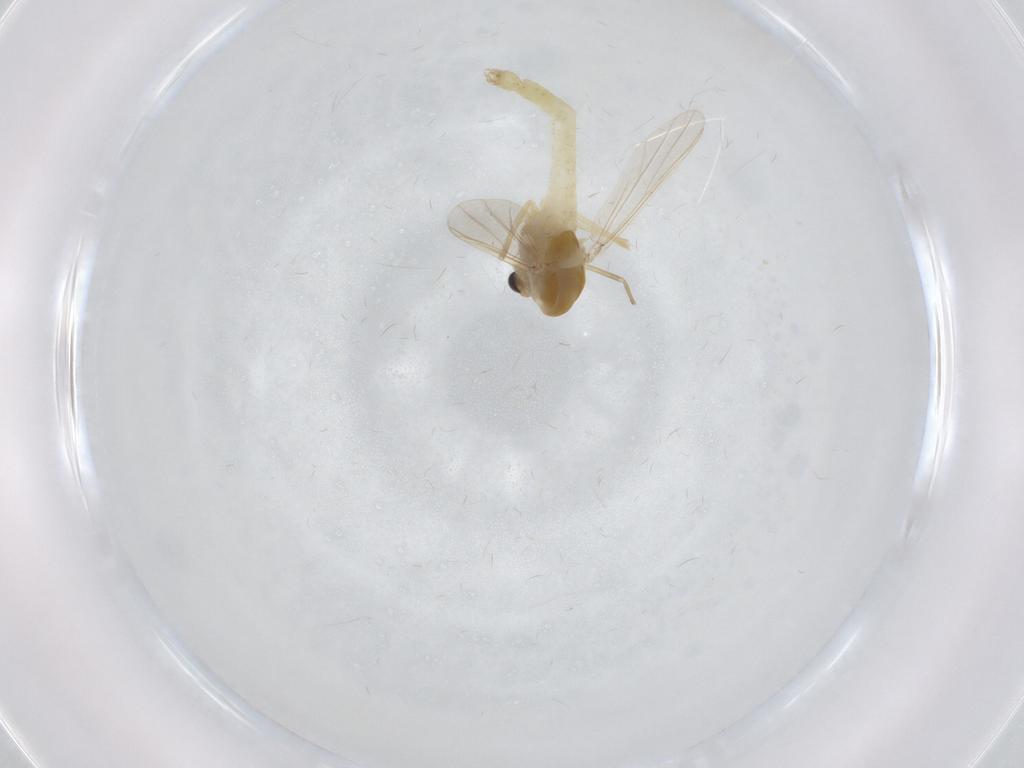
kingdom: Animalia
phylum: Arthropoda
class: Insecta
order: Diptera
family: Chironomidae
